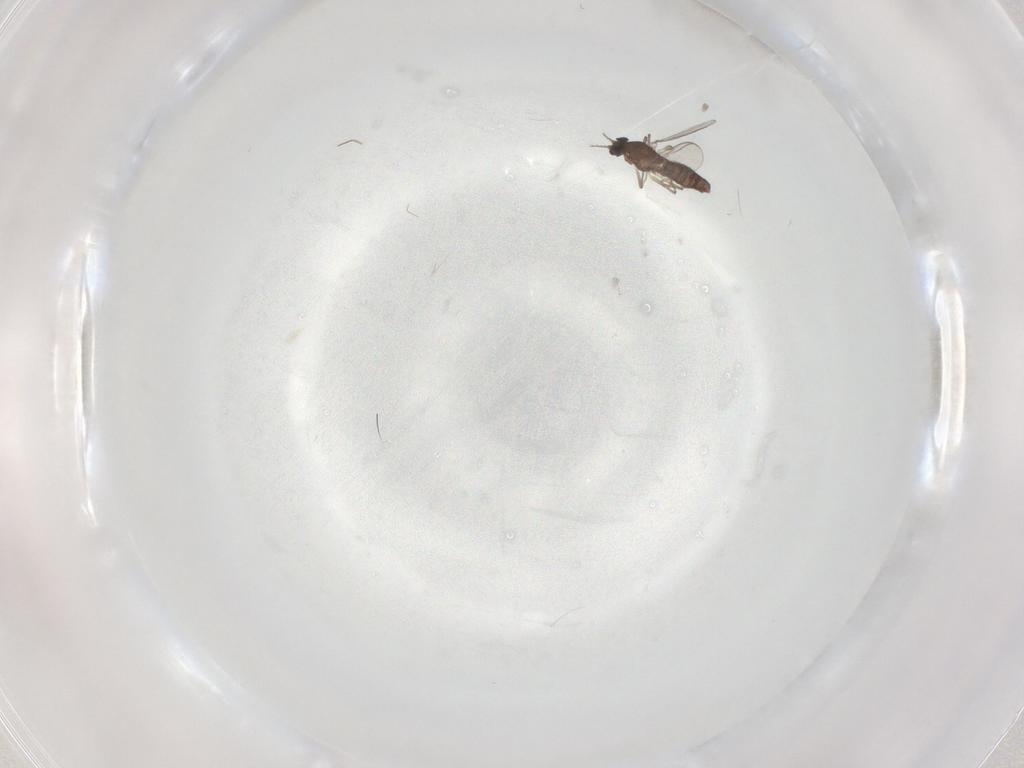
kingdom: Animalia
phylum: Arthropoda
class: Insecta
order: Diptera
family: Chironomidae
